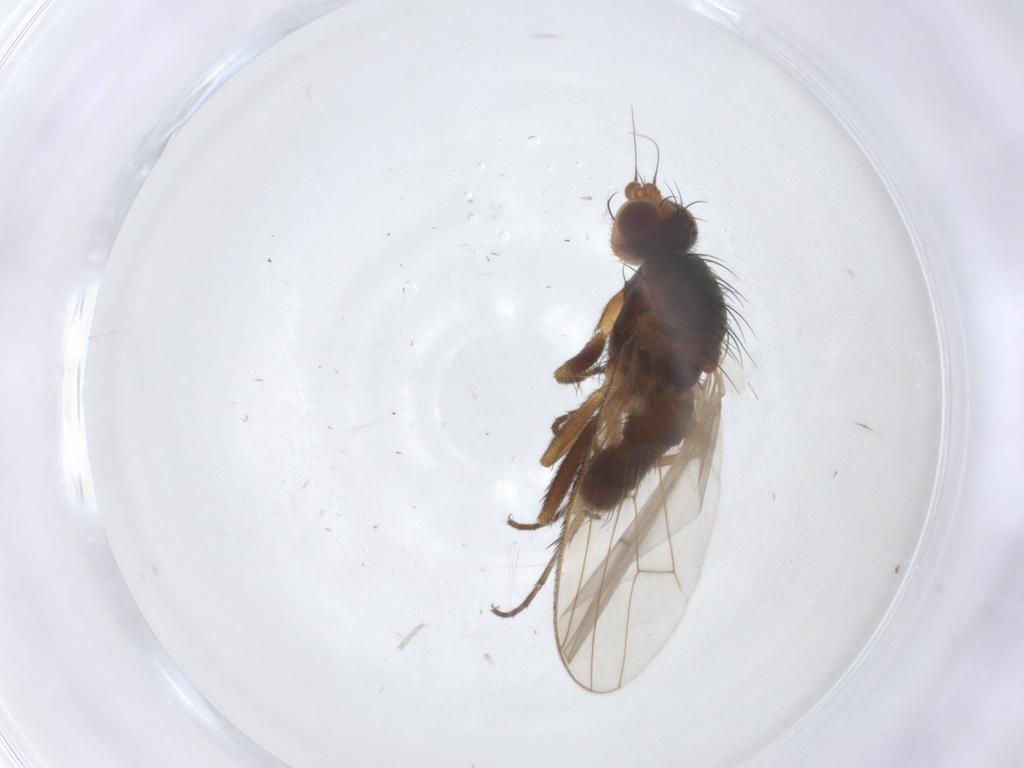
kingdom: Animalia
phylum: Arthropoda
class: Insecta
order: Diptera
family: Heleomyzidae
